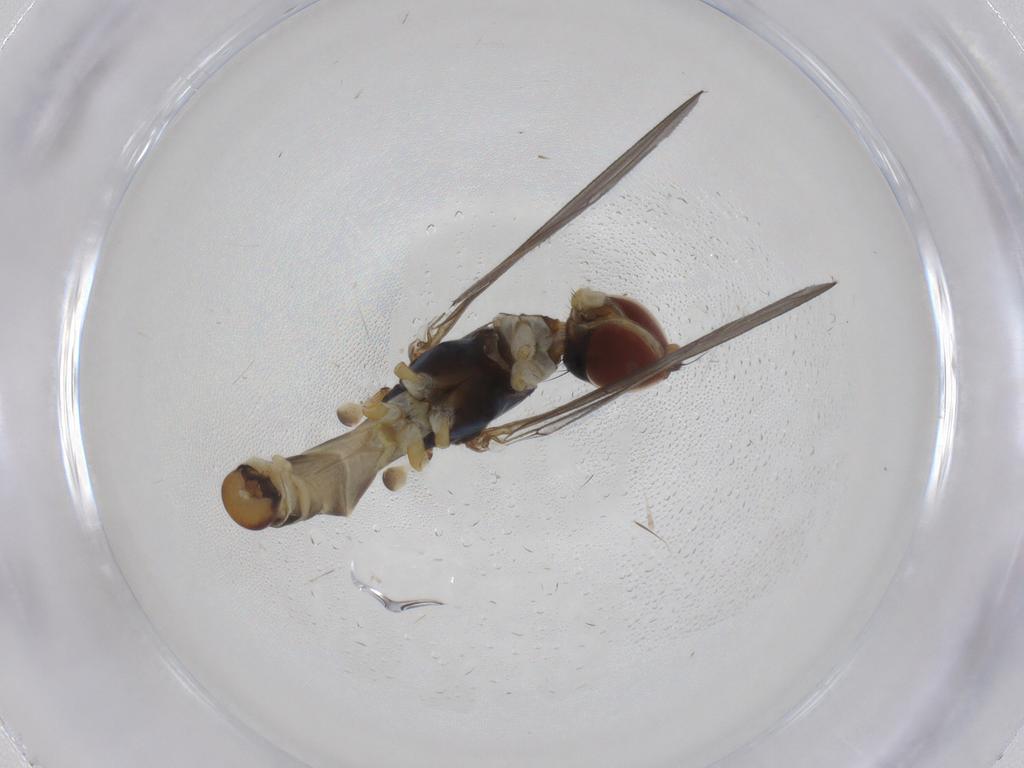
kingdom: Animalia
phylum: Arthropoda
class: Insecta
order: Diptera
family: Micropezidae
